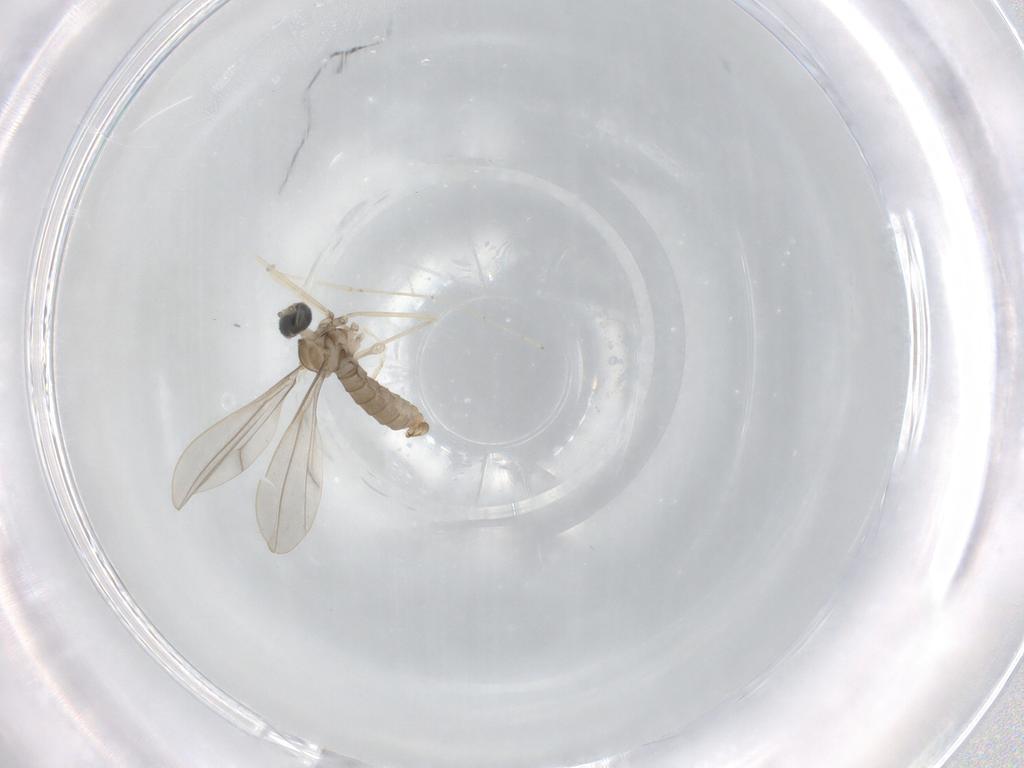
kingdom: Animalia
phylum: Arthropoda
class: Insecta
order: Diptera
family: Cecidomyiidae
